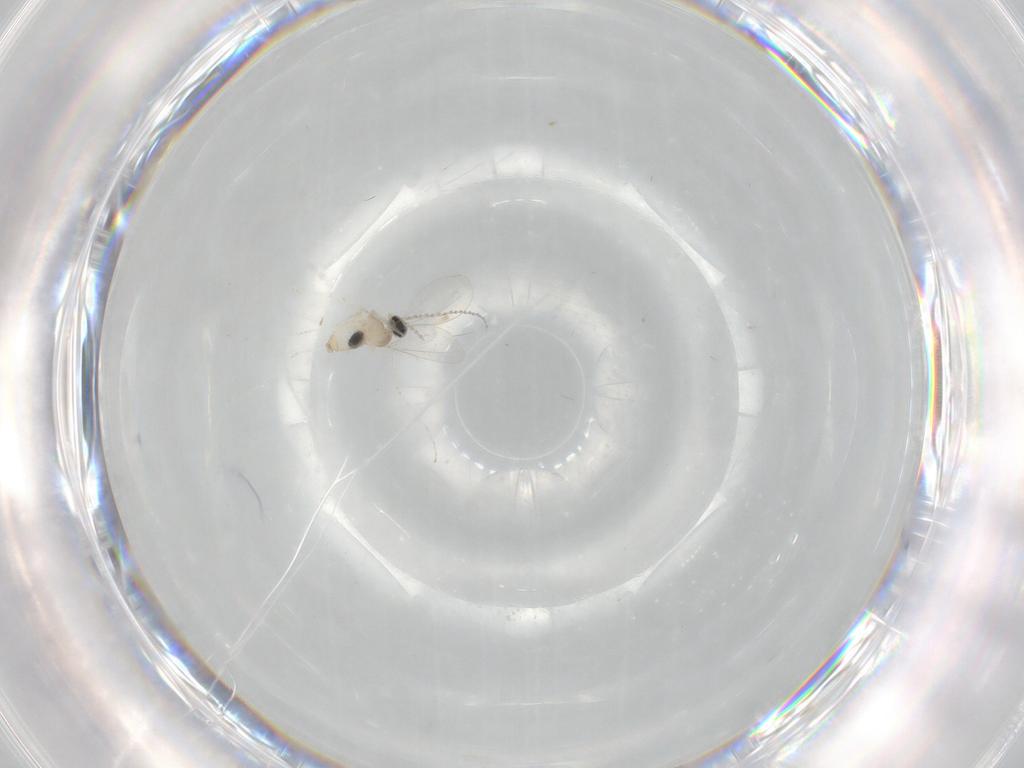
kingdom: Animalia
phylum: Arthropoda
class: Insecta
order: Diptera
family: Cecidomyiidae
